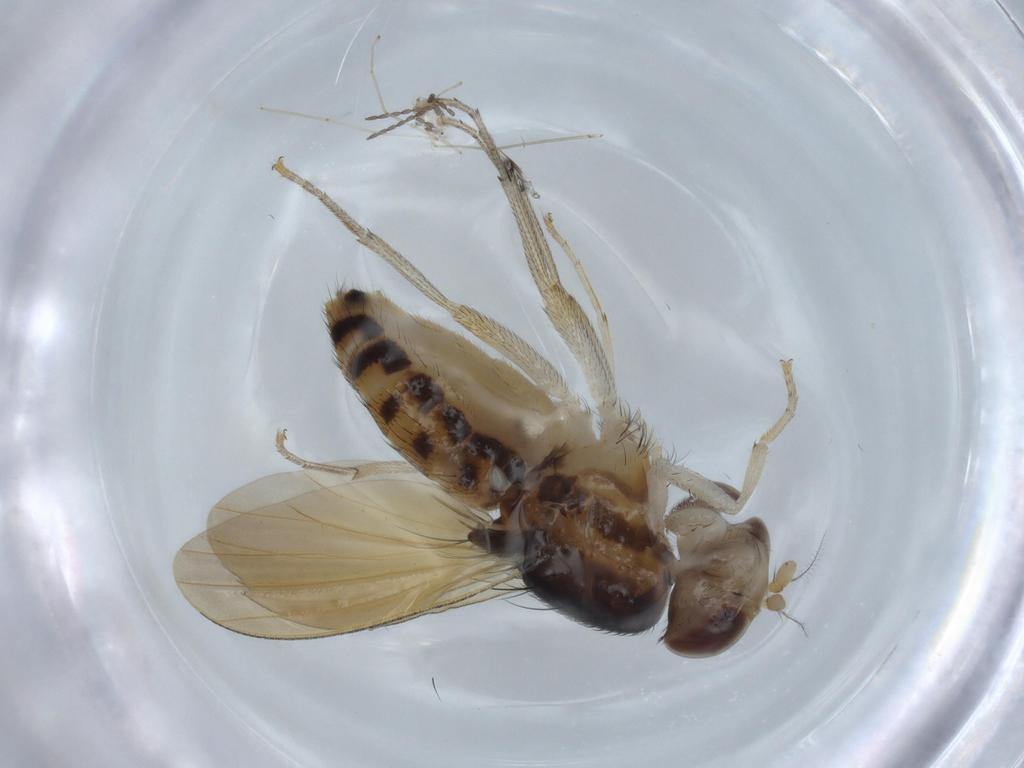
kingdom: Animalia
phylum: Arthropoda
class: Insecta
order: Diptera
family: Sciaridae
